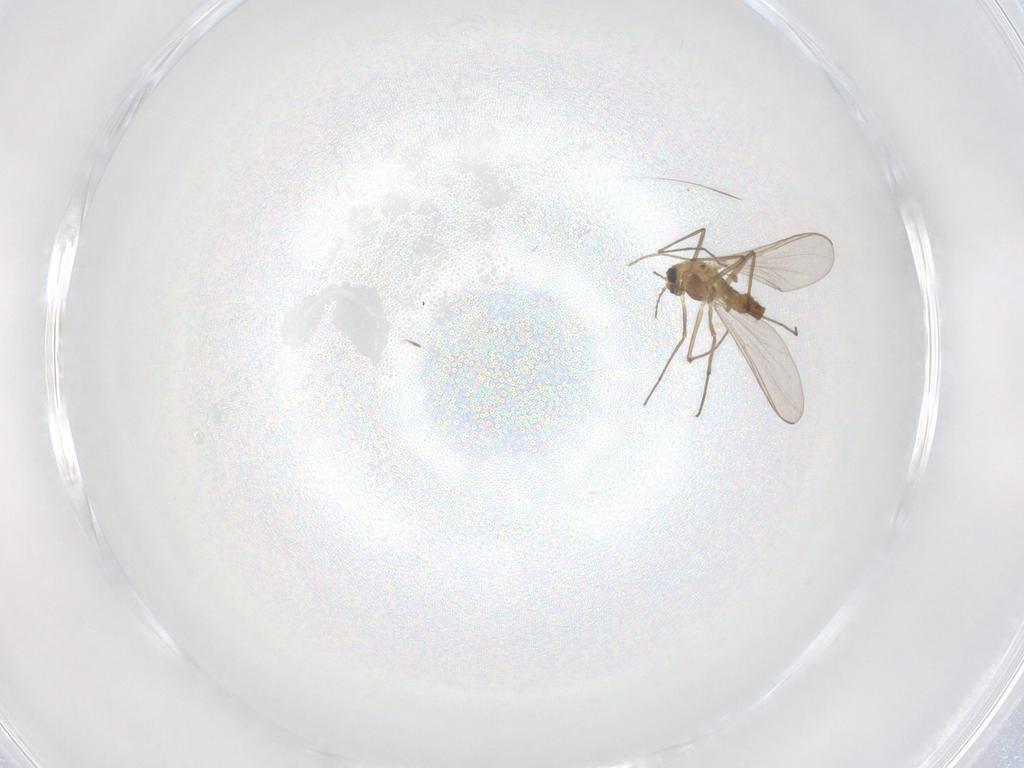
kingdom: Animalia
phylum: Arthropoda
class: Insecta
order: Diptera
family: Chironomidae
